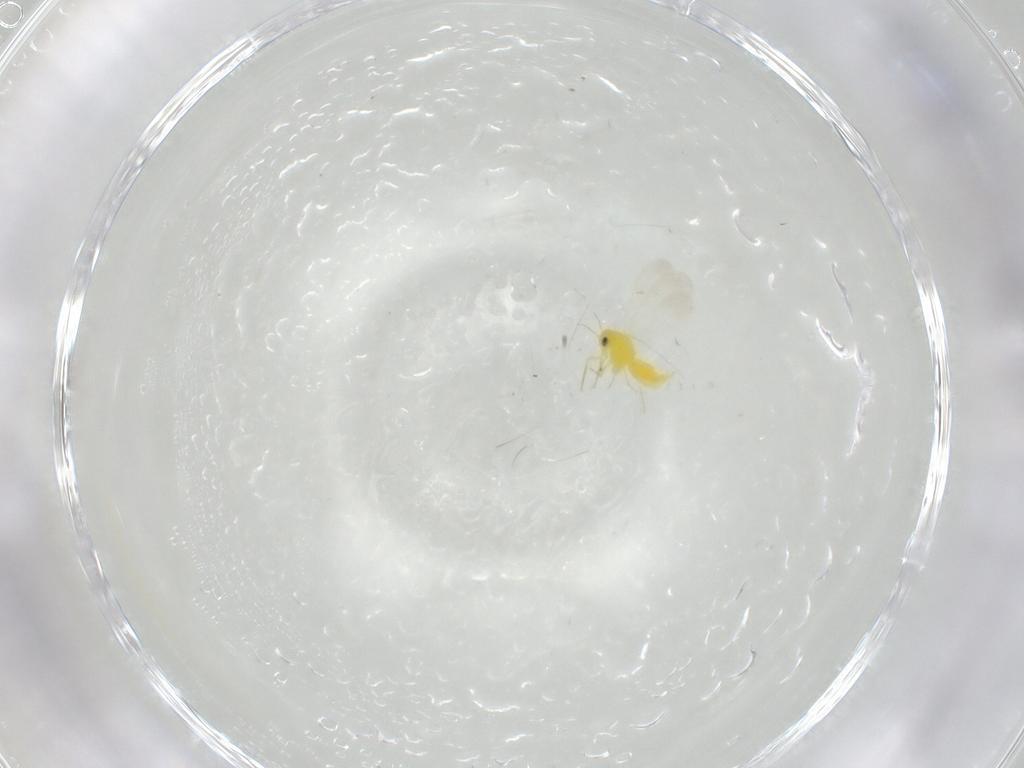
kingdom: Animalia
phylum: Arthropoda
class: Insecta
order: Hemiptera
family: Aleyrodidae
